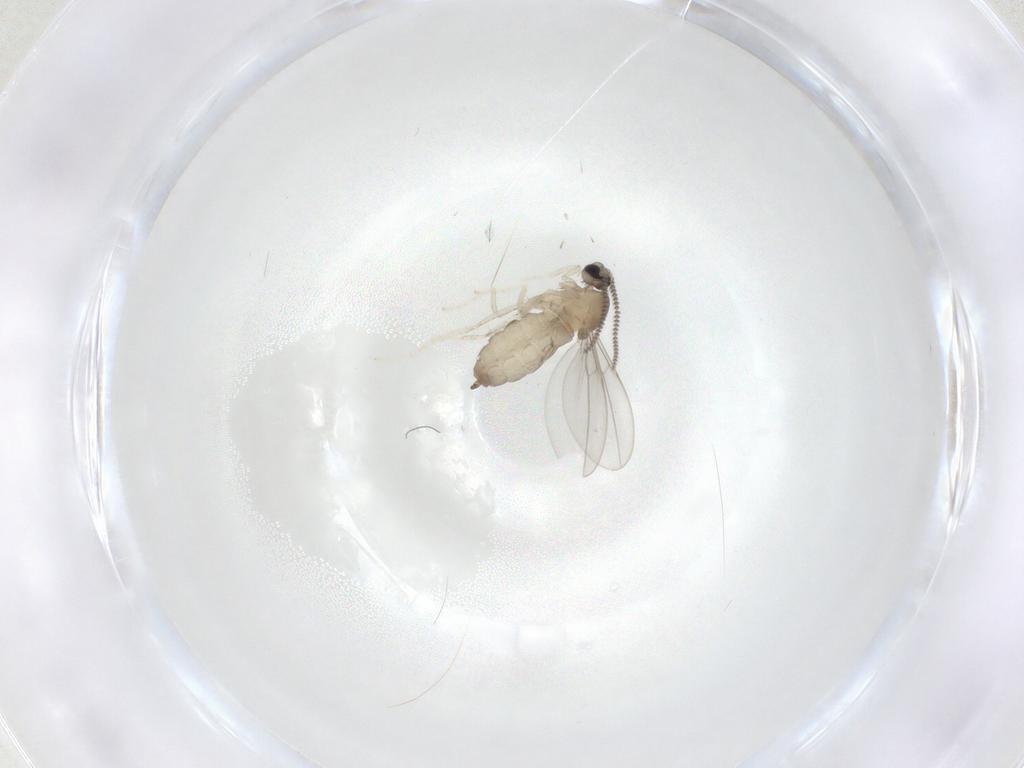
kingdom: Animalia
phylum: Arthropoda
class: Insecta
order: Diptera
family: Cecidomyiidae
